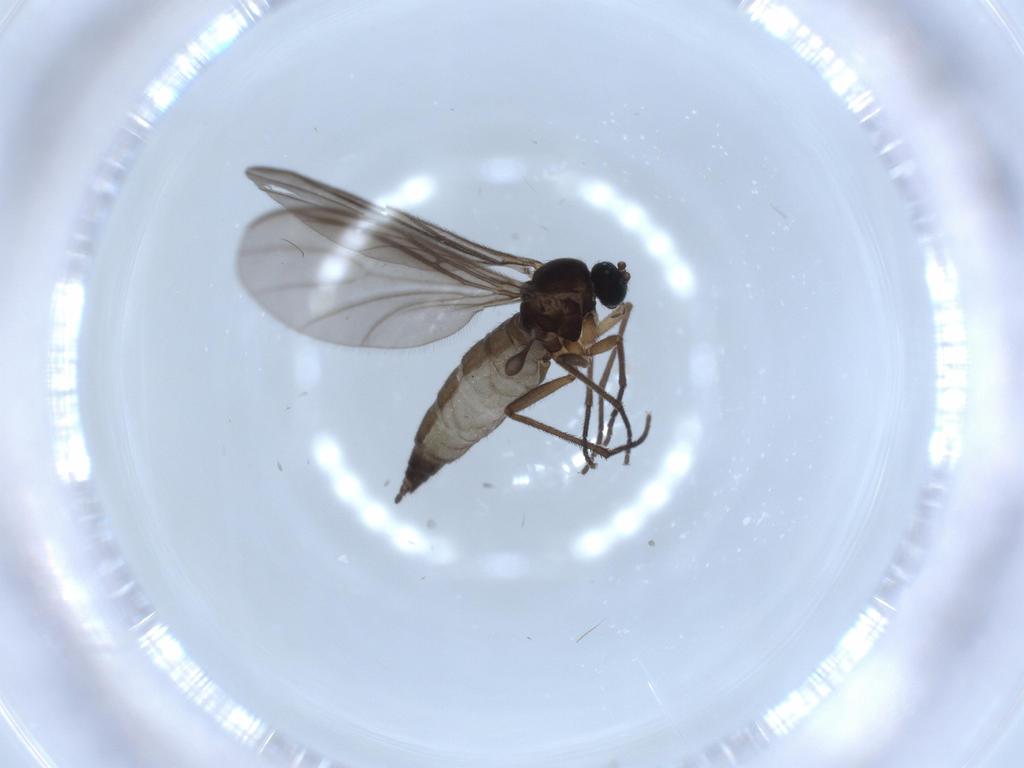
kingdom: Animalia
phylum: Arthropoda
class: Insecta
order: Diptera
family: Sciaridae
